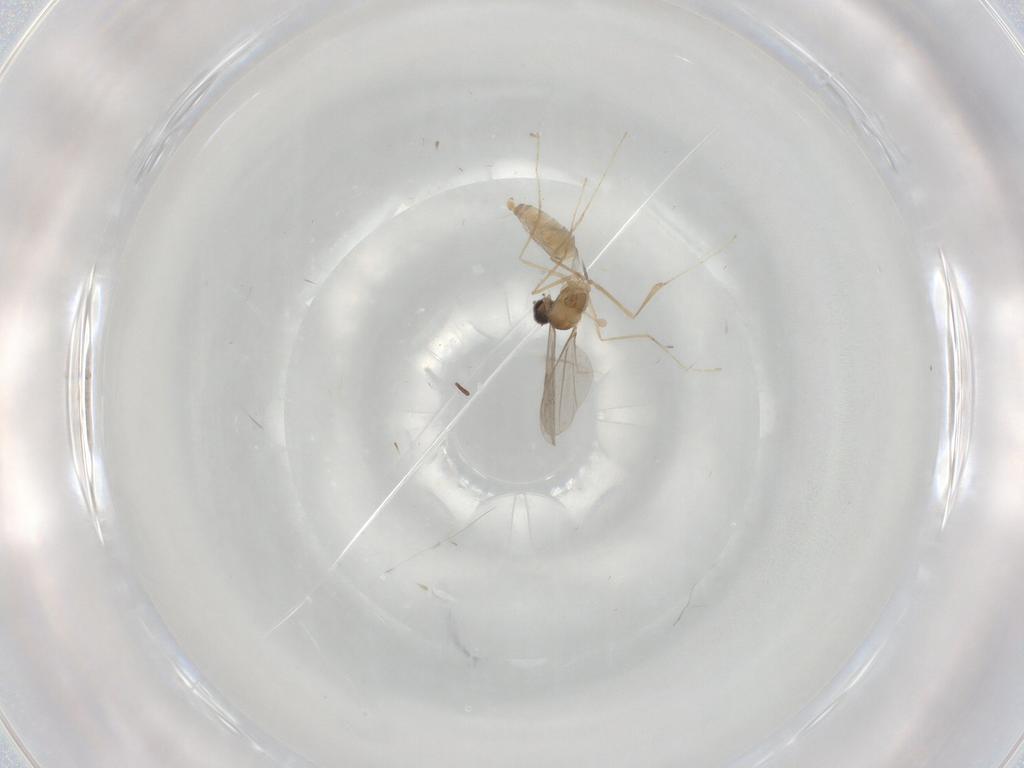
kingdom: Animalia
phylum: Arthropoda
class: Insecta
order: Diptera
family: Cecidomyiidae
